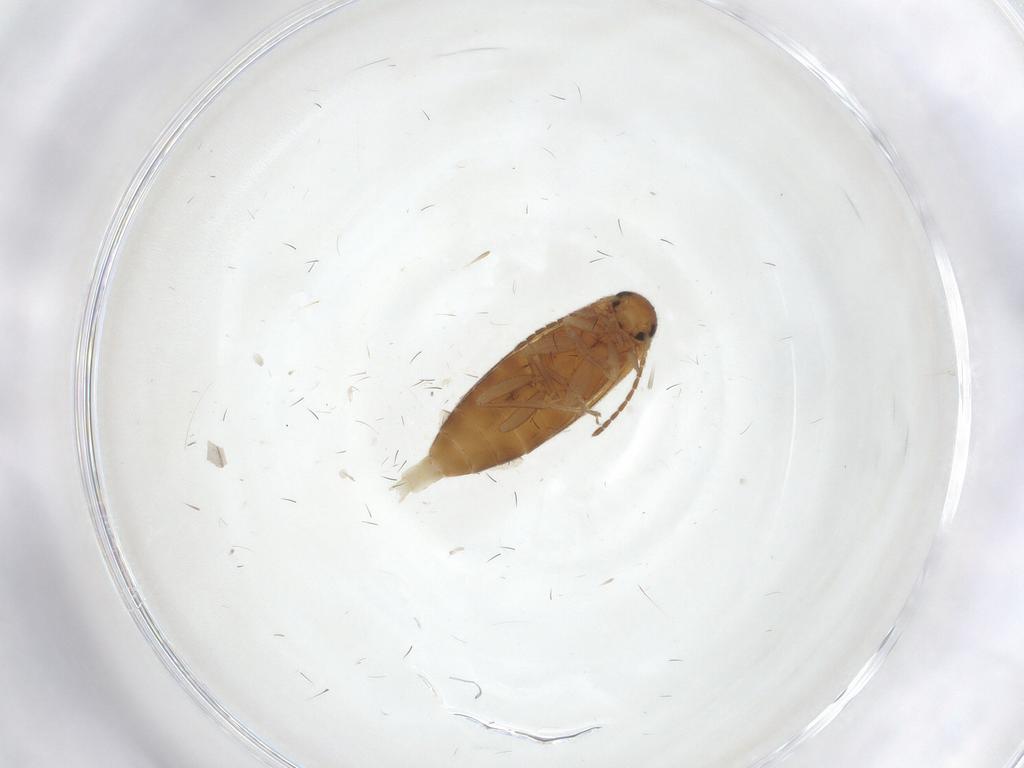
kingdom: Animalia
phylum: Arthropoda
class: Insecta
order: Coleoptera
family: Scraptiidae
